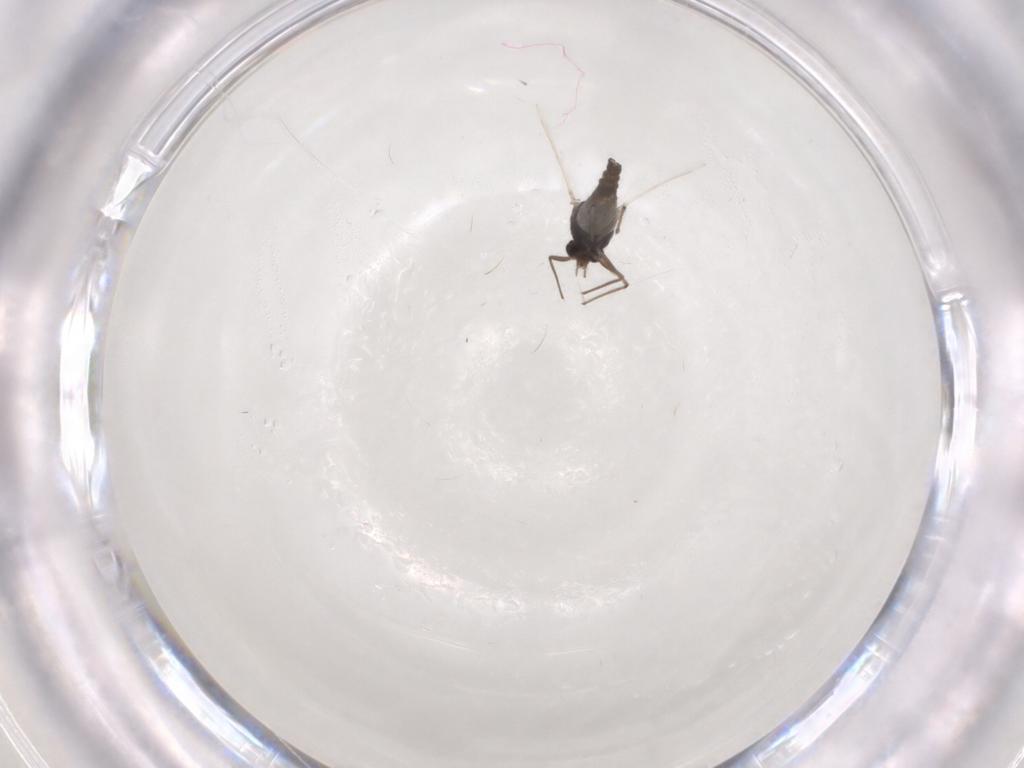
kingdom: Animalia
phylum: Arthropoda
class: Insecta
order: Diptera
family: Chironomidae
